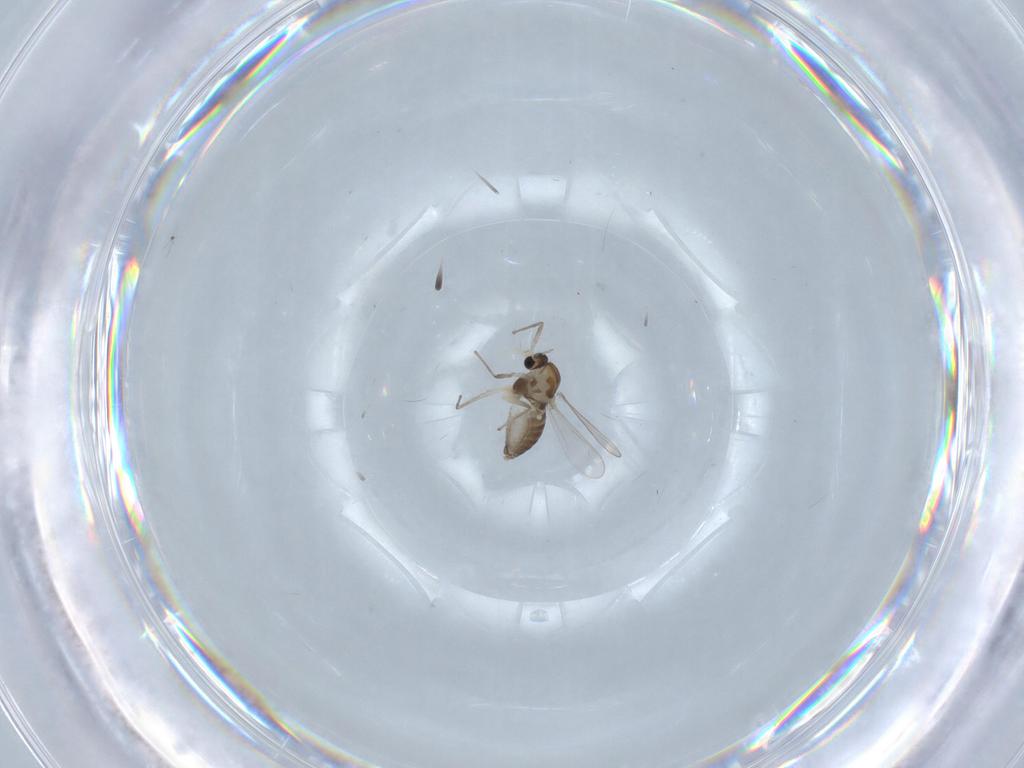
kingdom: Animalia
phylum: Arthropoda
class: Insecta
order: Diptera
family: Chironomidae
